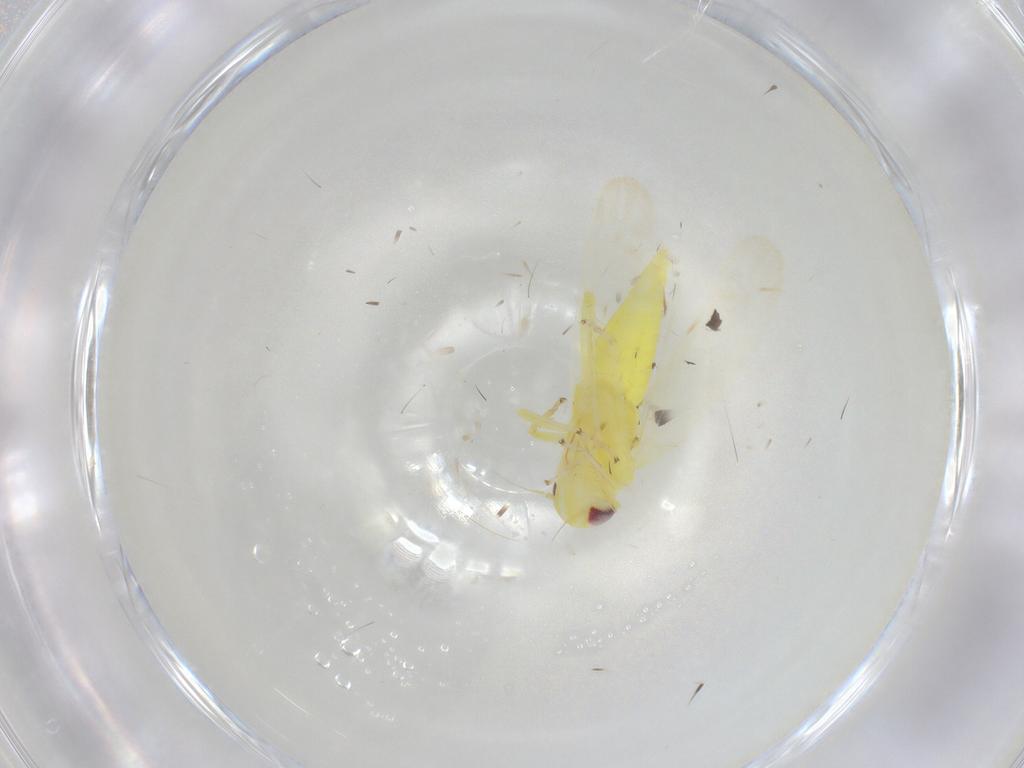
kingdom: Animalia
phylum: Arthropoda
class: Insecta
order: Hemiptera
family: Cicadellidae
